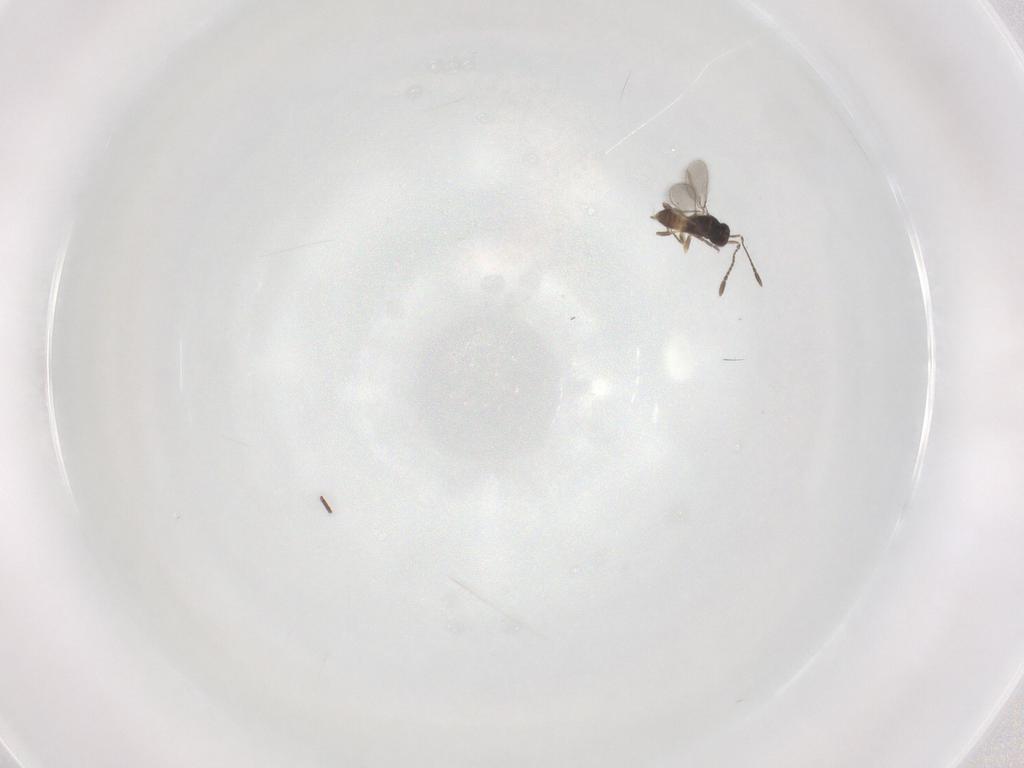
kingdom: Animalia
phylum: Arthropoda
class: Insecta
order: Hymenoptera
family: Mymaridae
